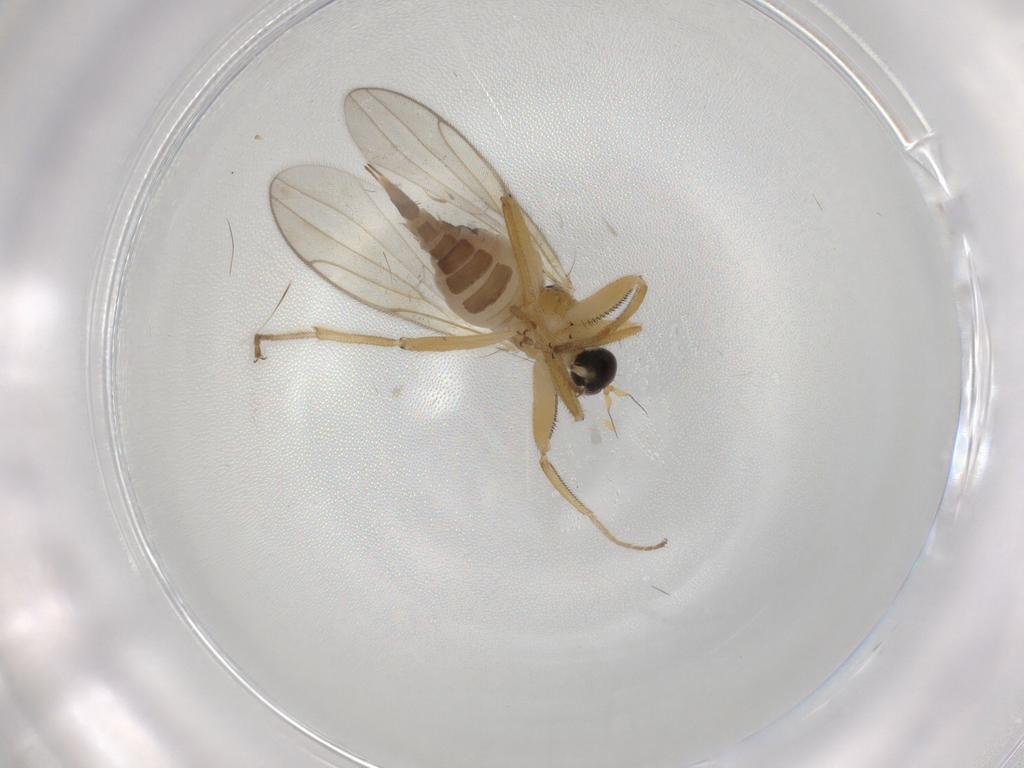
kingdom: Animalia
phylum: Arthropoda
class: Insecta
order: Diptera
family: Hybotidae
